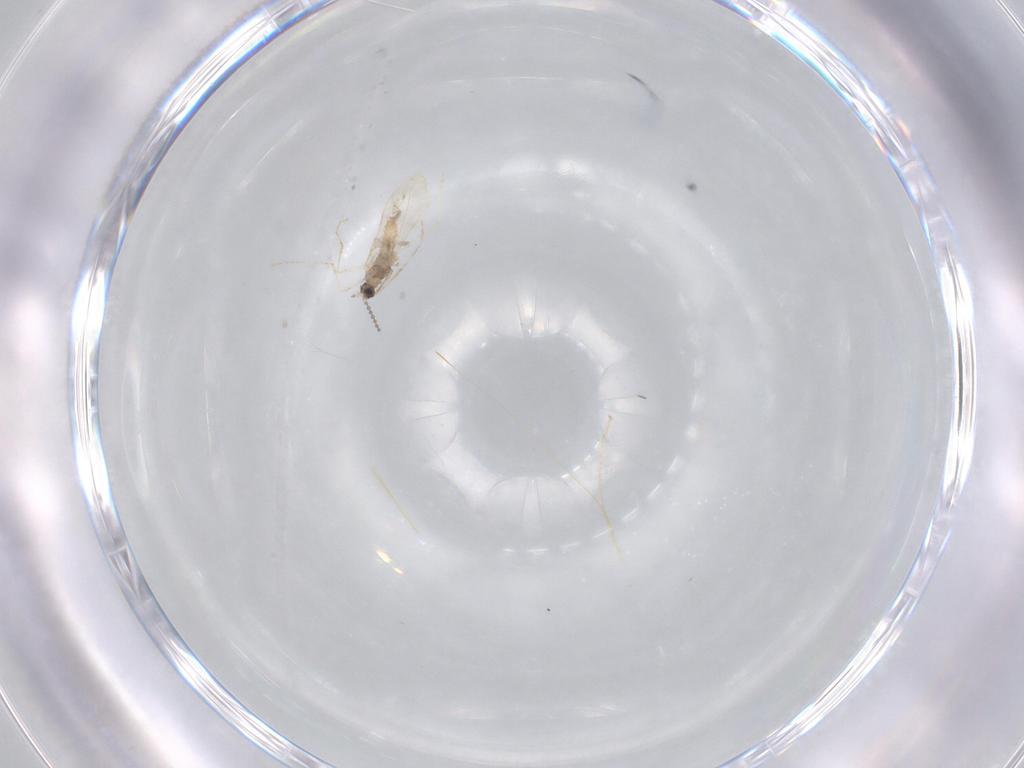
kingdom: Animalia
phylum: Arthropoda
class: Insecta
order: Diptera
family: Cecidomyiidae
